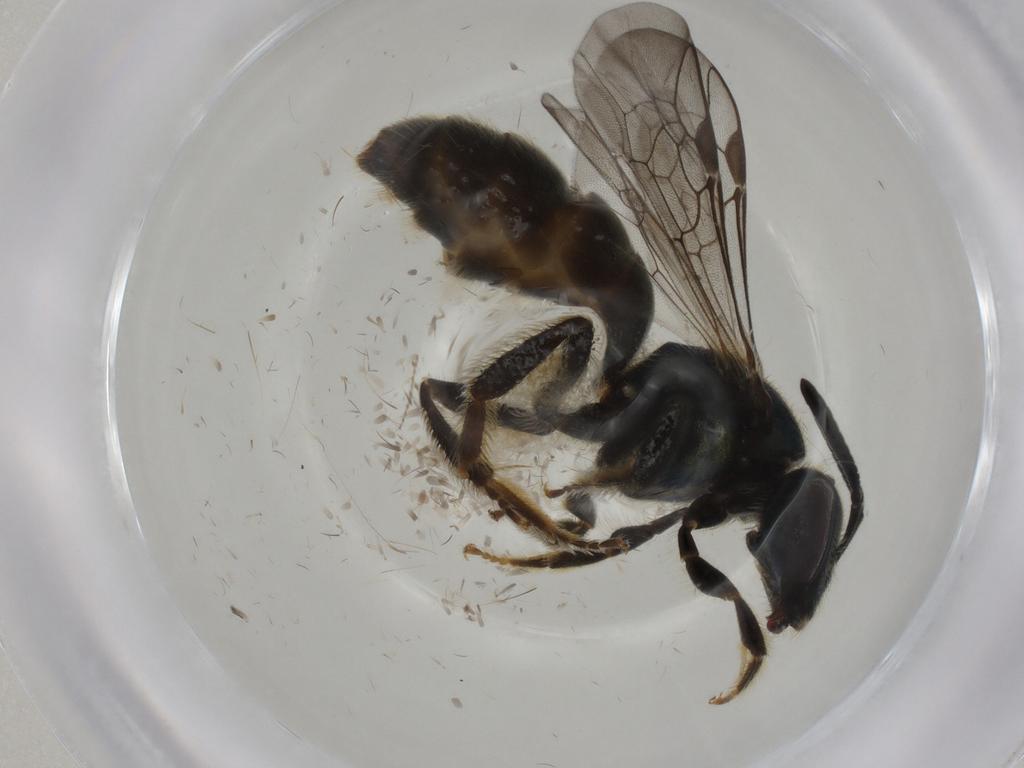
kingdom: Animalia
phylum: Arthropoda
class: Insecta
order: Hymenoptera
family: Halictidae
